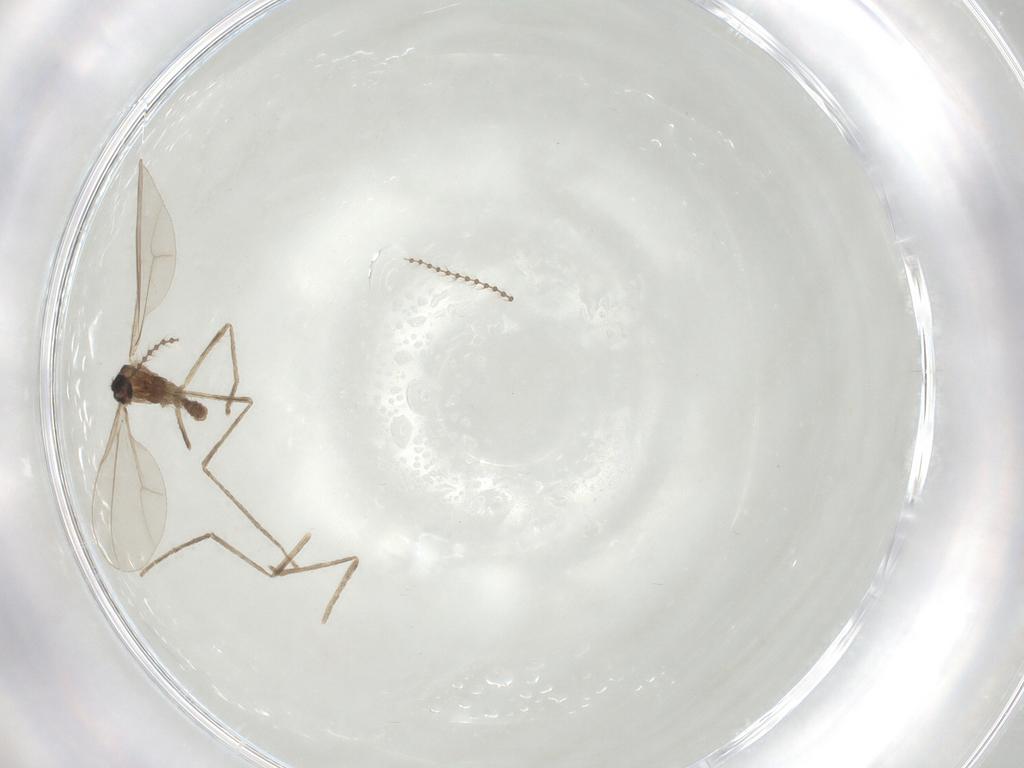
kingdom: Animalia
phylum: Arthropoda
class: Insecta
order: Diptera
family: Cecidomyiidae
